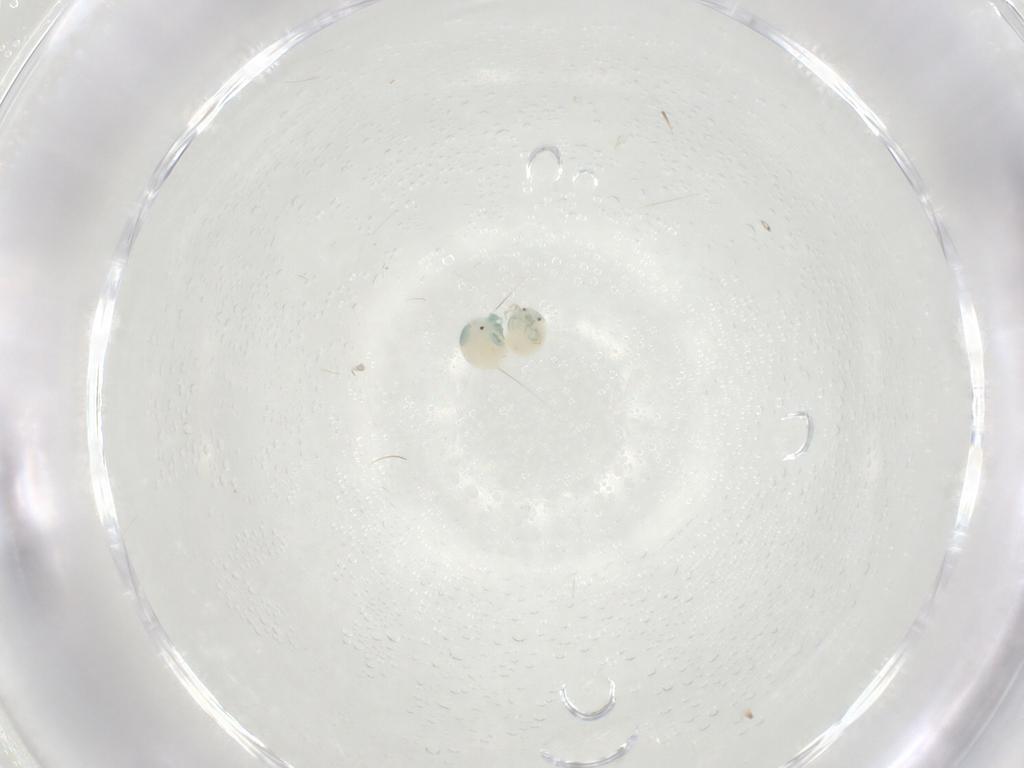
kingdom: Animalia
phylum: Arthropoda
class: Arachnida
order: Trombidiformes
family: Arrenuridae
